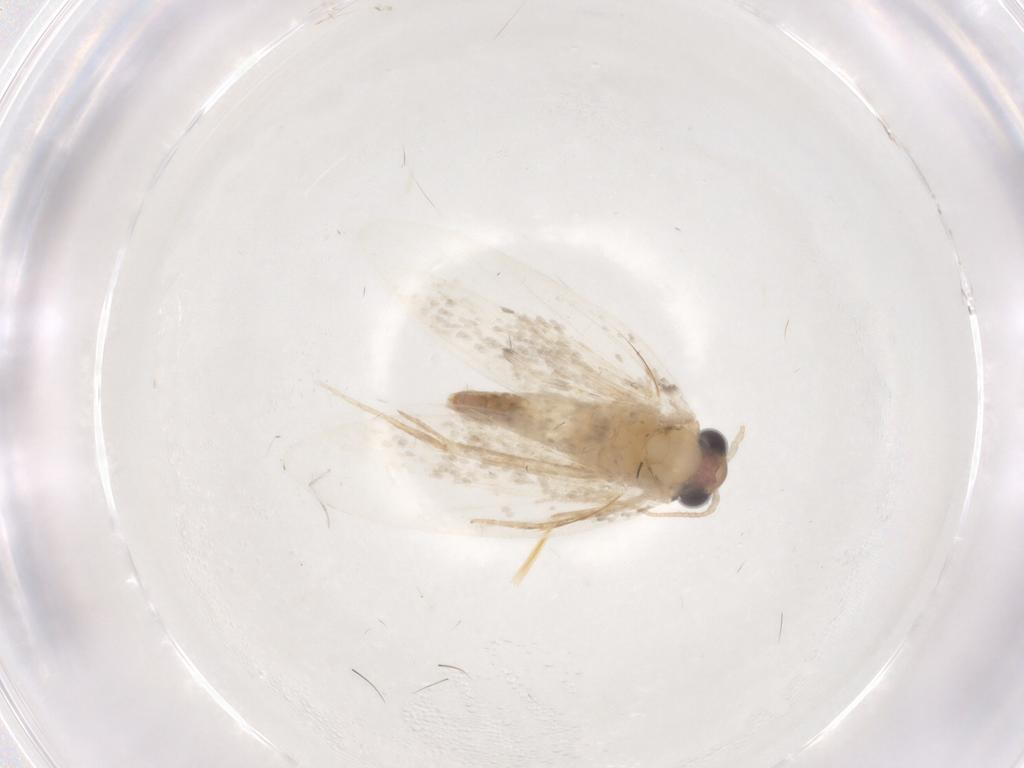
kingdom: Animalia
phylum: Arthropoda
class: Insecta
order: Lepidoptera
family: Psychidae
